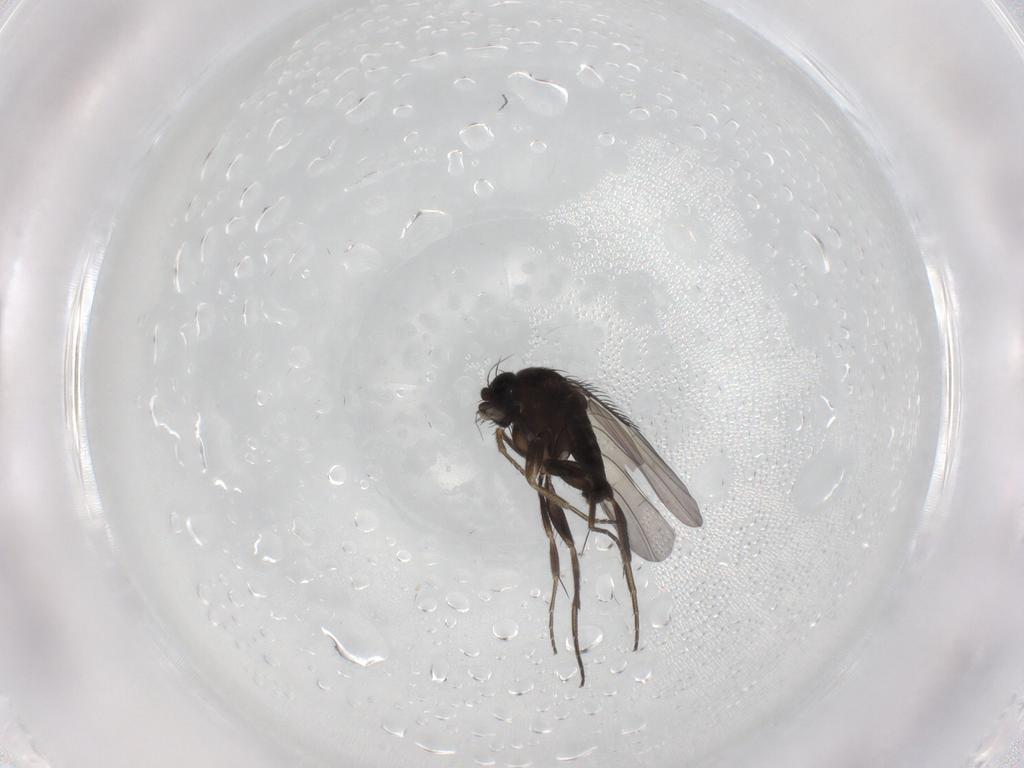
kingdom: Animalia
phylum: Arthropoda
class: Insecta
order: Diptera
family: Phoridae
